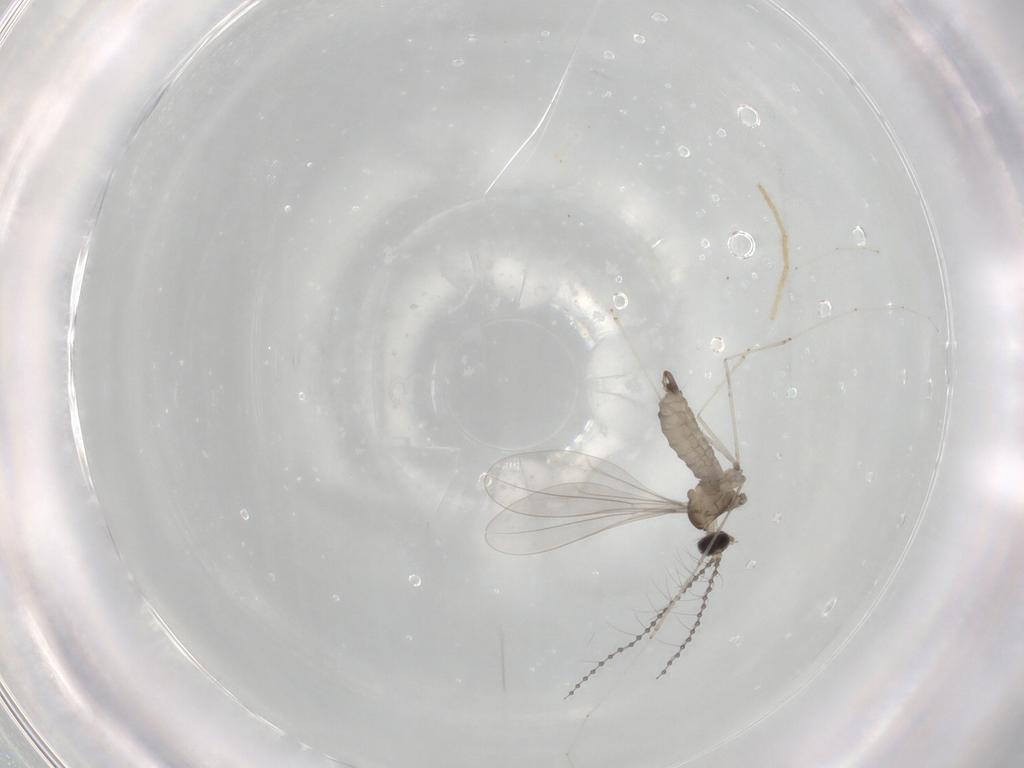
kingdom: Animalia
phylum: Arthropoda
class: Insecta
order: Diptera
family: Limoniidae
